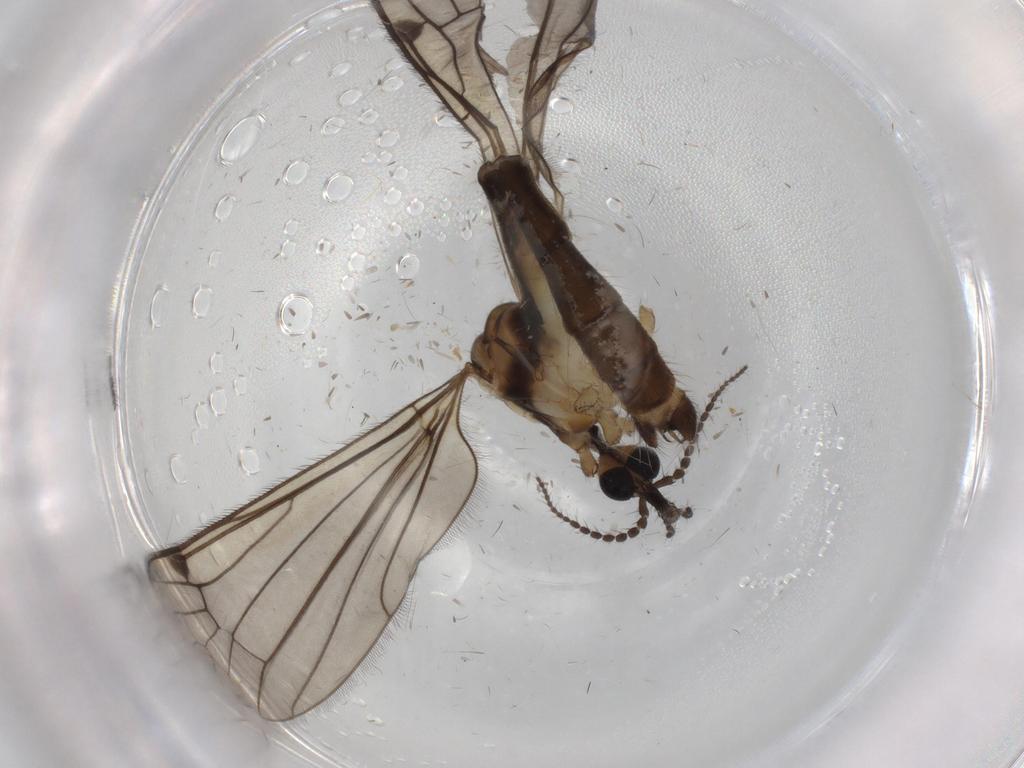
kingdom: Animalia
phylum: Arthropoda
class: Insecta
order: Diptera
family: Limoniidae
